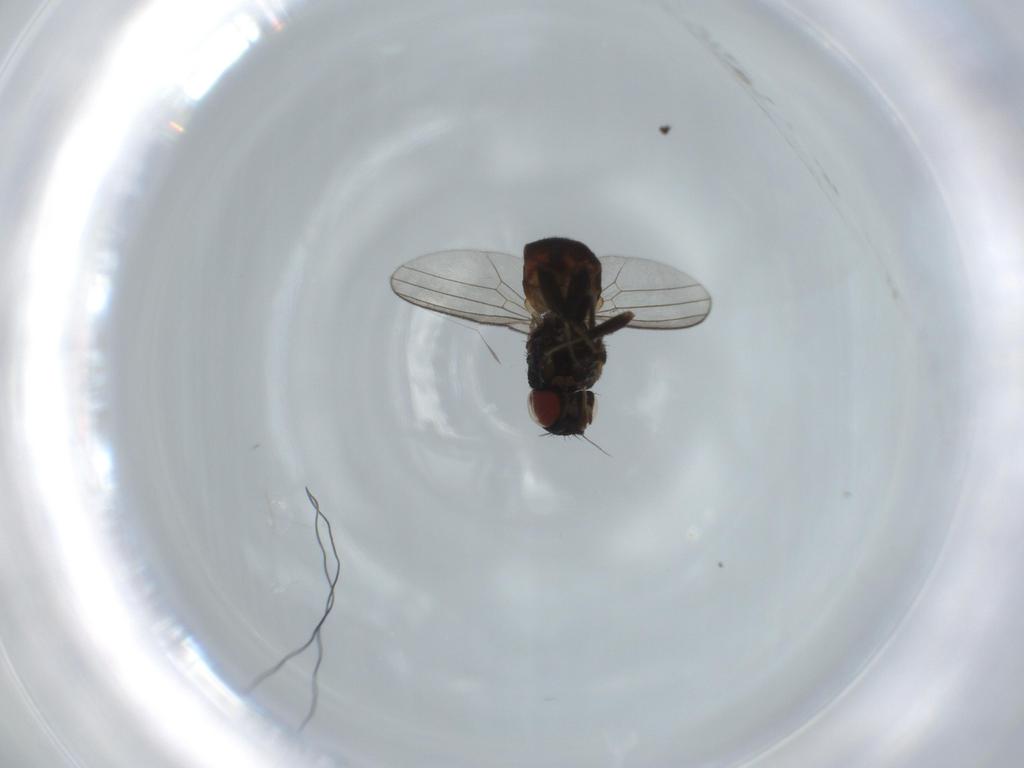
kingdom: Animalia
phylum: Arthropoda
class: Insecta
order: Diptera
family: Milichiidae
